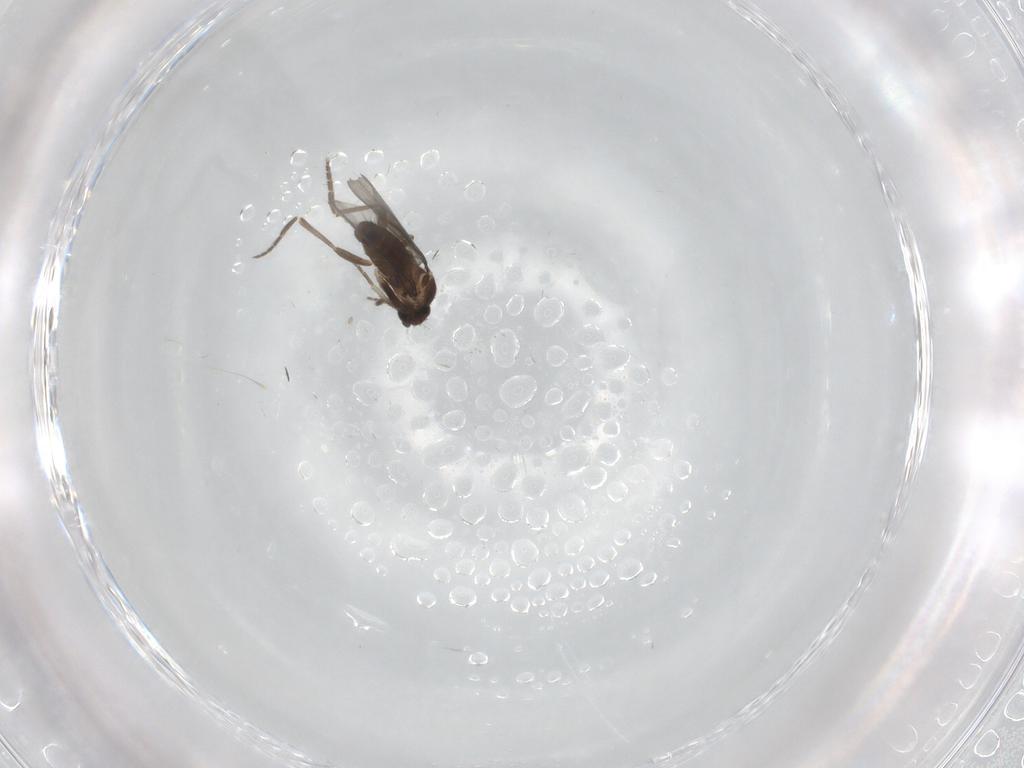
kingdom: Animalia
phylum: Arthropoda
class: Insecta
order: Diptera
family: Phoridae
